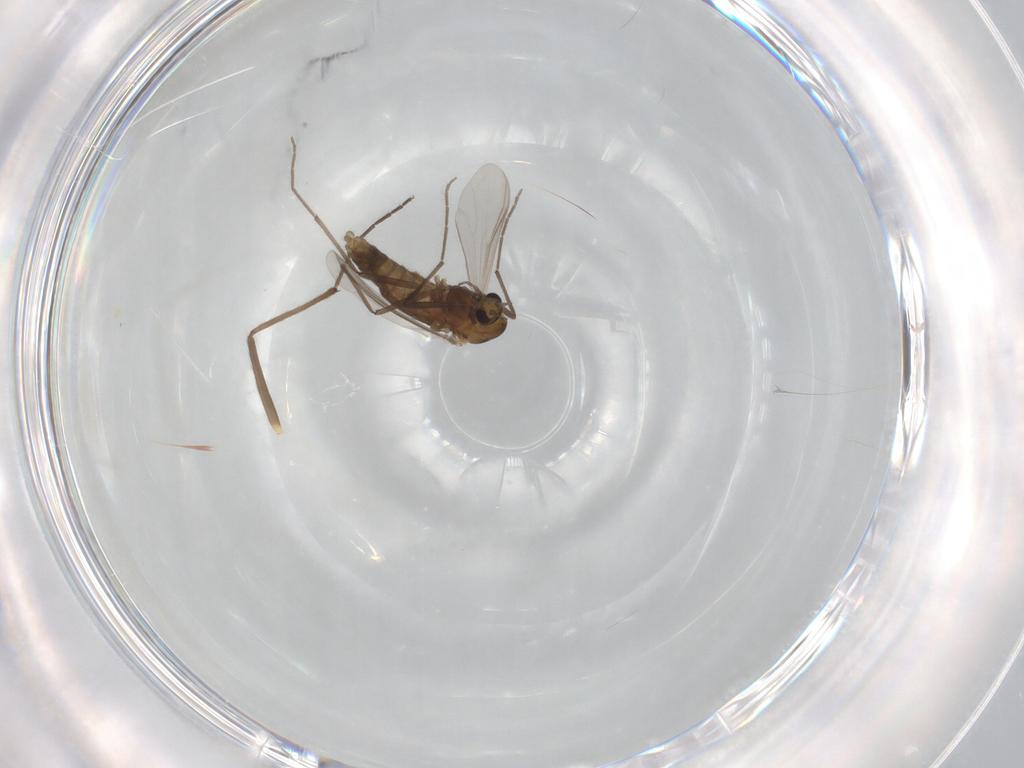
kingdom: Animalia
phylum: Arthropoda
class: Insecta
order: Diptera
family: Chironomidae
